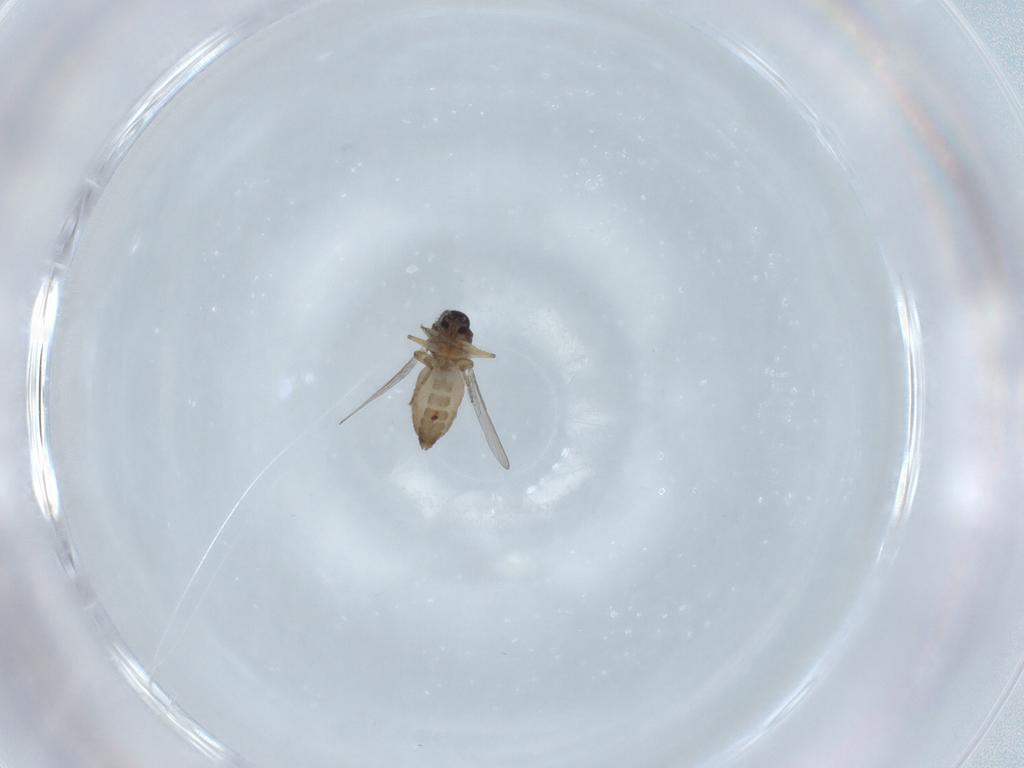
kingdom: Animalia
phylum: Arthropoda
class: Insecta
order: Diptera
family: Ceratopogonidae
